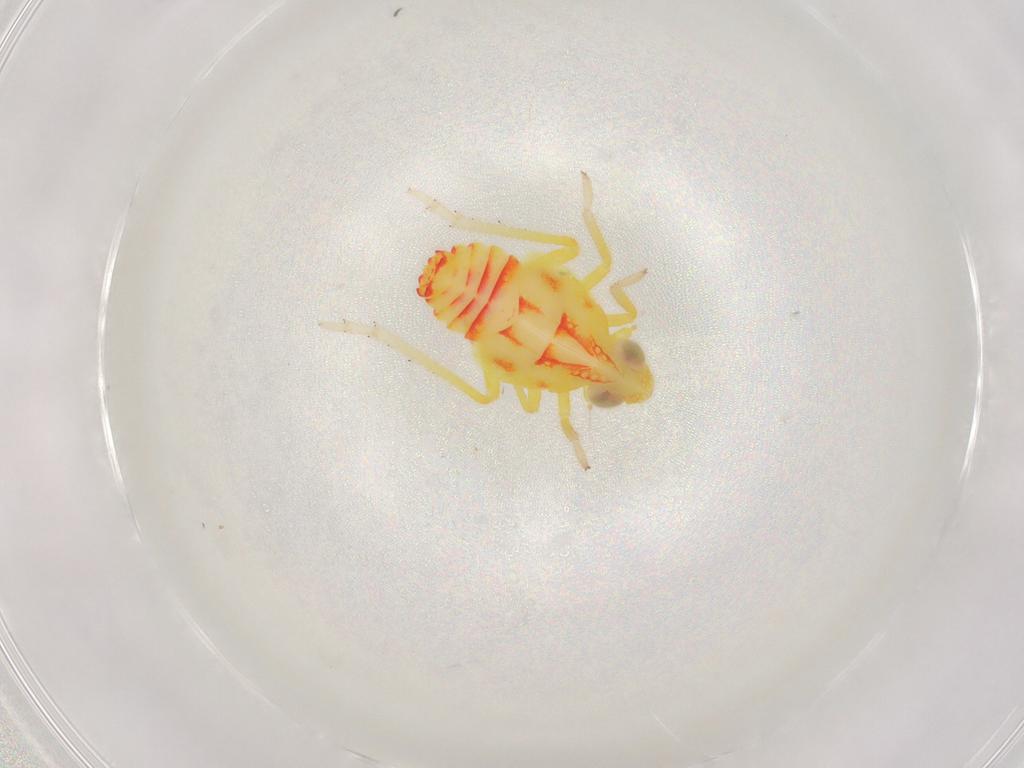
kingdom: Animalia
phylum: Arthropoda
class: Insecta
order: Hemiptera
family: Tropiduchidae
